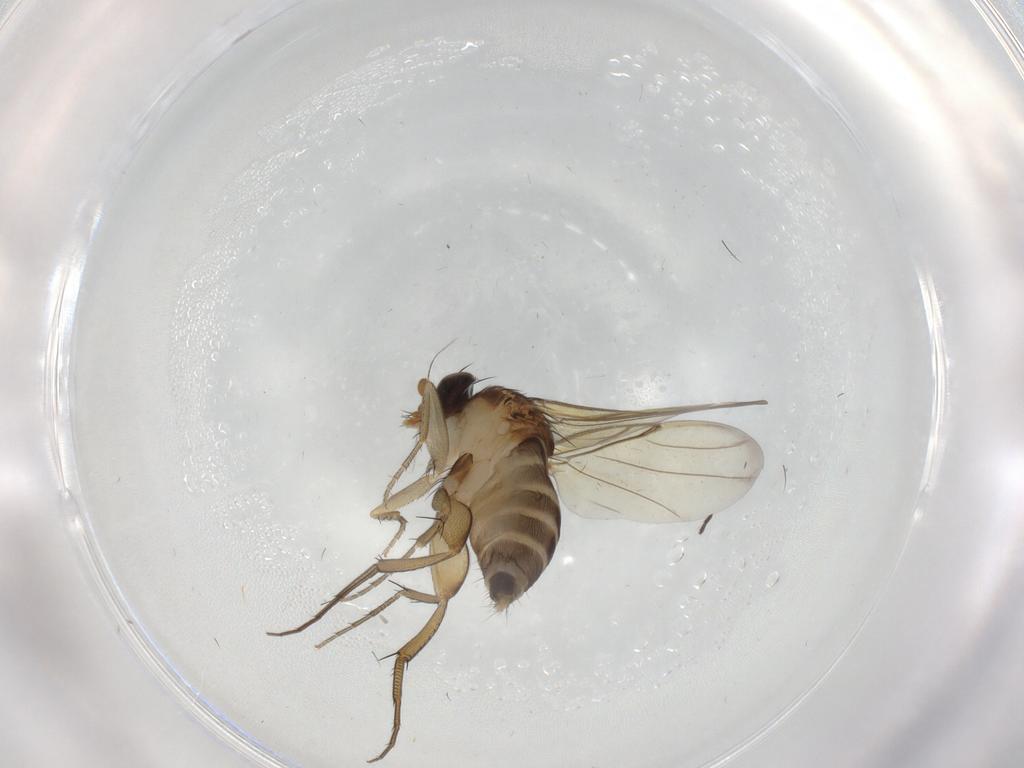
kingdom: Animalia
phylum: Arthropoda
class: Insecta
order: Diptera
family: Phoridae
